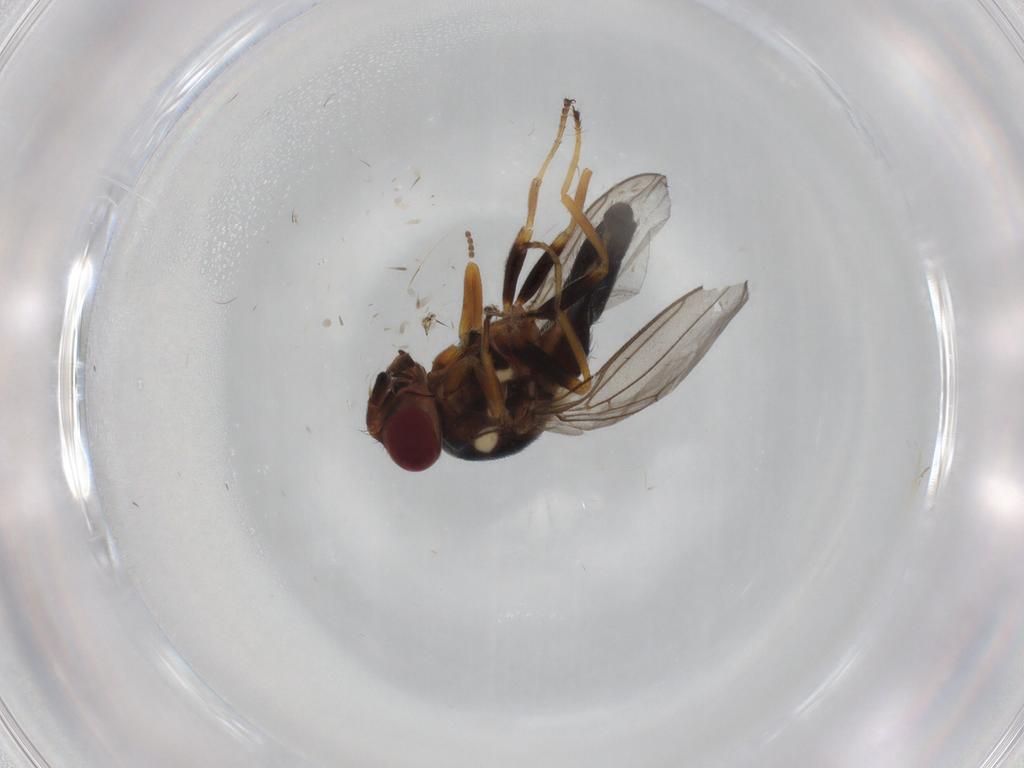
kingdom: Animalia
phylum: Arthropoda
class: Insecta
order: Diptera
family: Chloropidae
